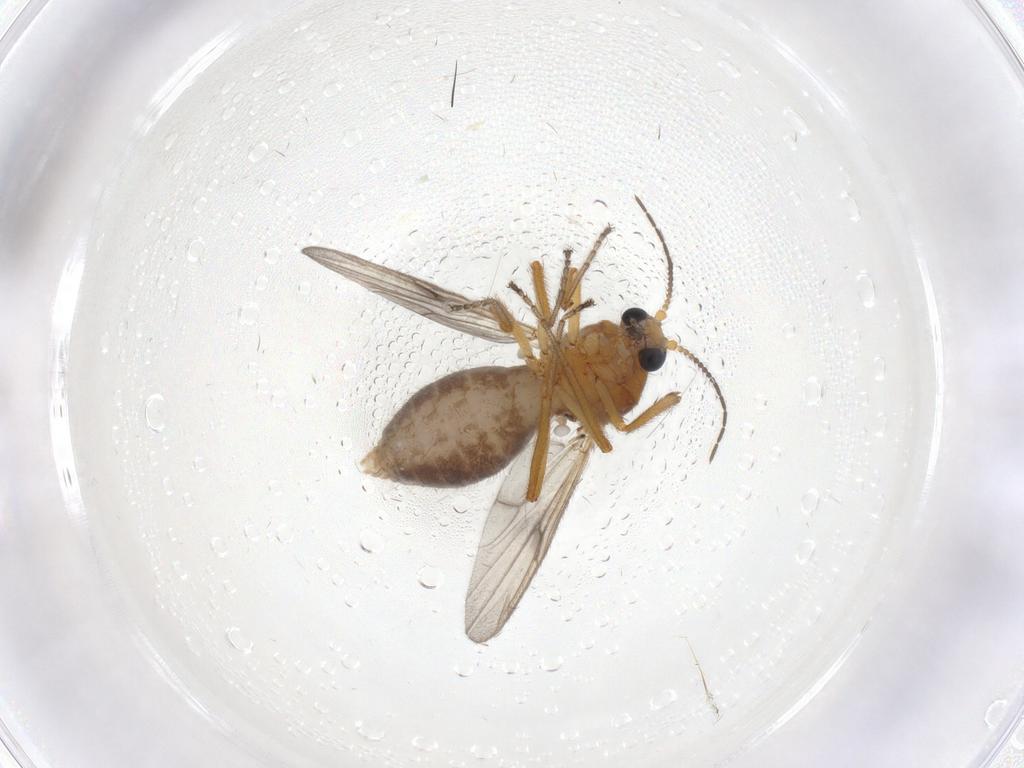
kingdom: Animalia
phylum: Arthropoda
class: Insecta
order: Diptera
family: Ceratopogonidae
